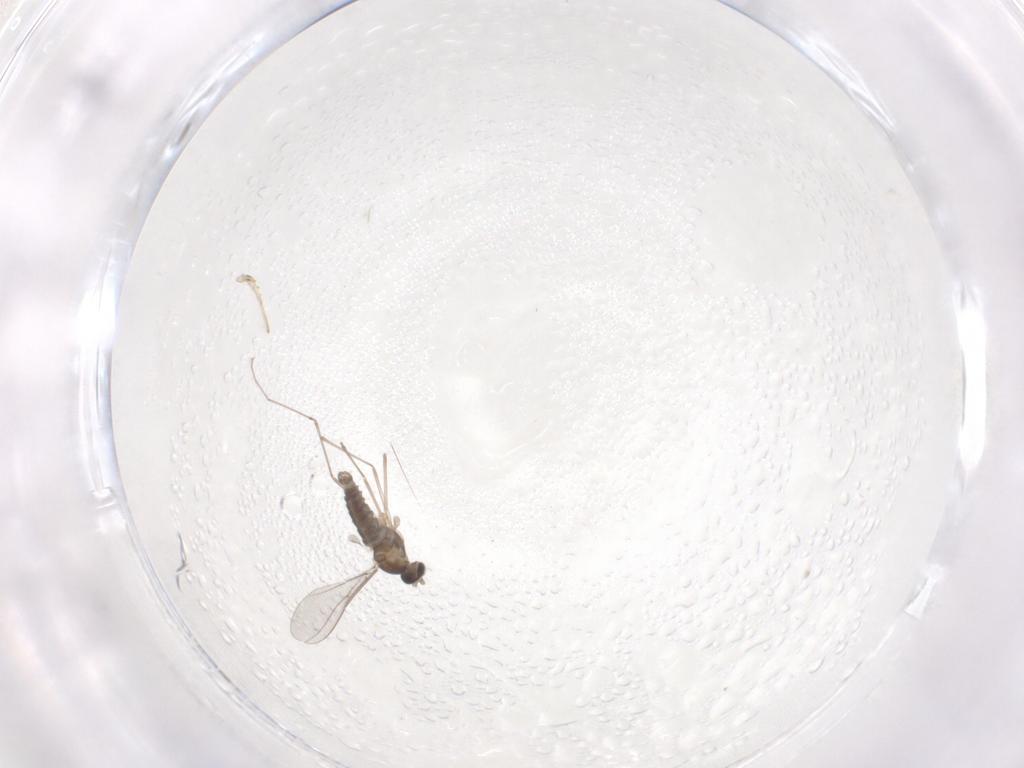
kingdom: Animalia
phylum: Arthropoda
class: Insecta
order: Diptera
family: Cecidomyiidae
